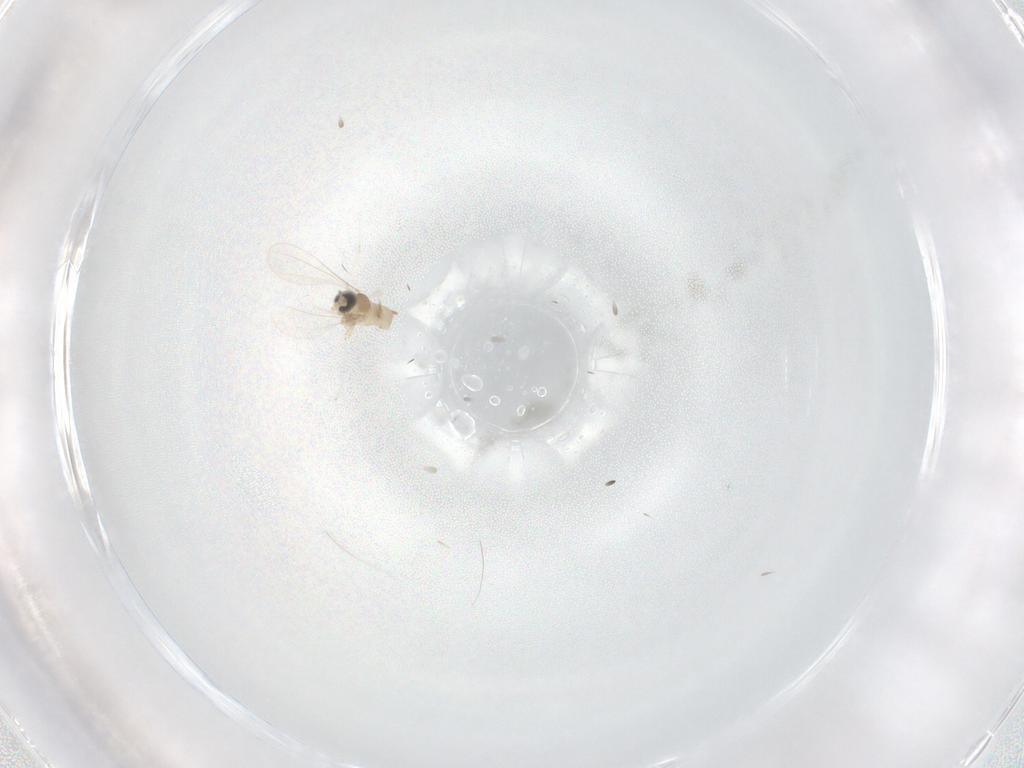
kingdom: Animalia
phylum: Arthropoda
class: Insecta
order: Diptera
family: Cecidomyiidae
